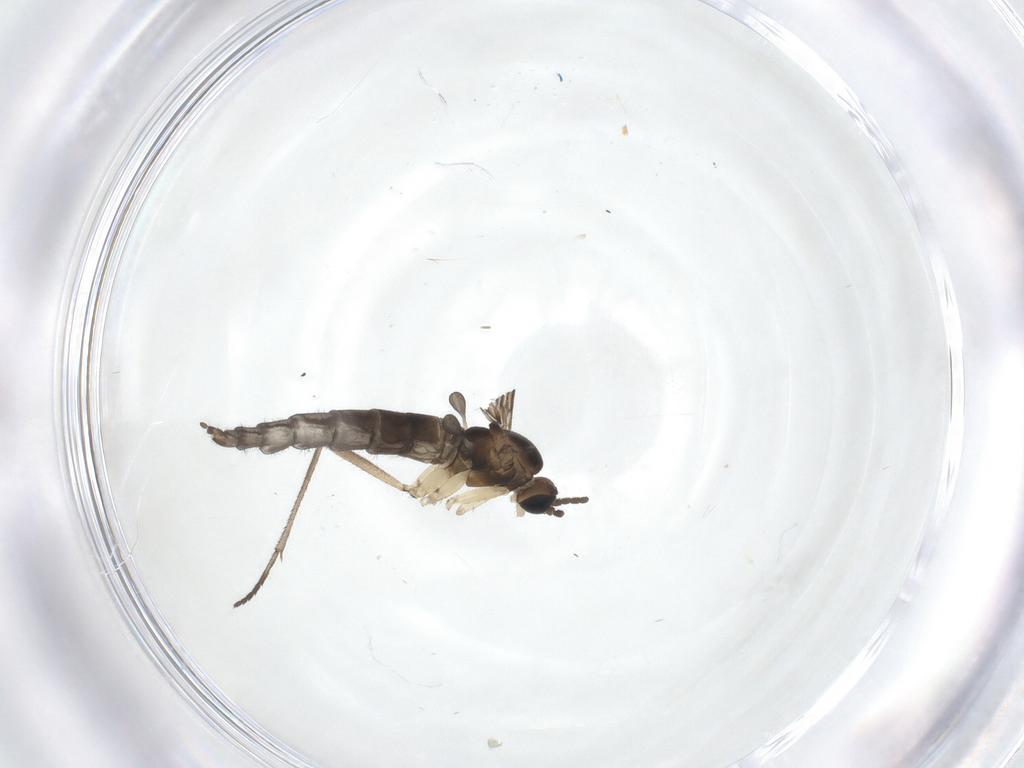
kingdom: Animalia
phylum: Arthropoda
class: Insecta
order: Diptera
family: Sciaridae
